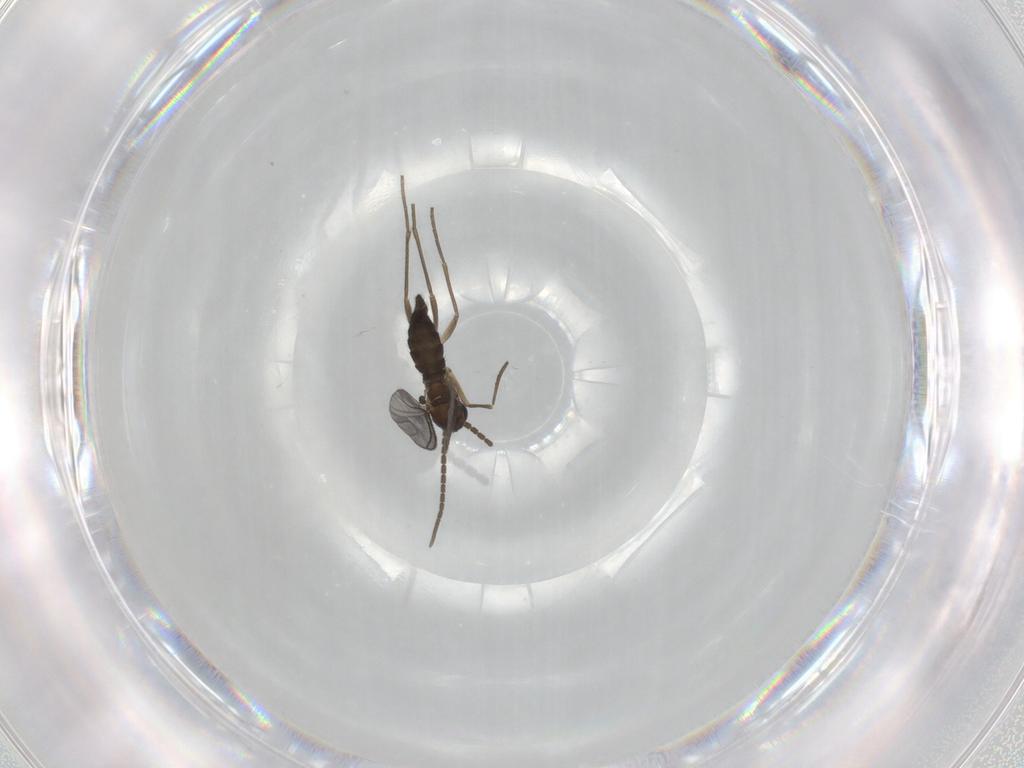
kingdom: Animalia
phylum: Arthropoda
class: Insecta
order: Diptera
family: Sciaridae
